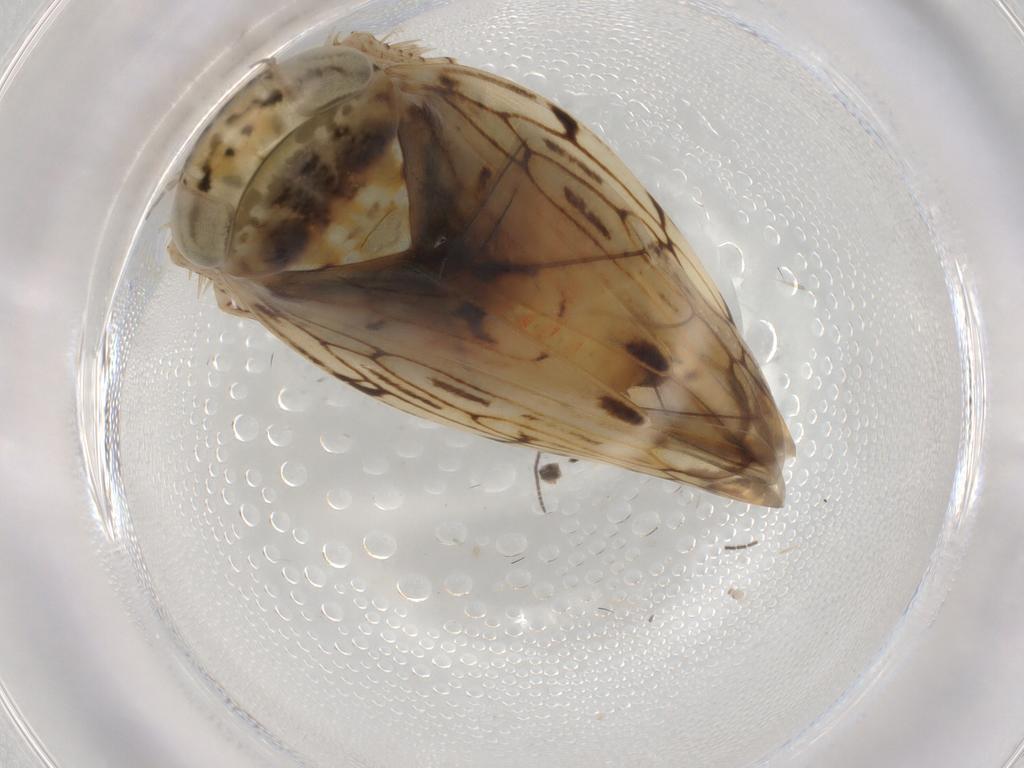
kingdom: Animalia
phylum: Arthropoda
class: Insecta
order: Hemiptera
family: Cicadellidae
